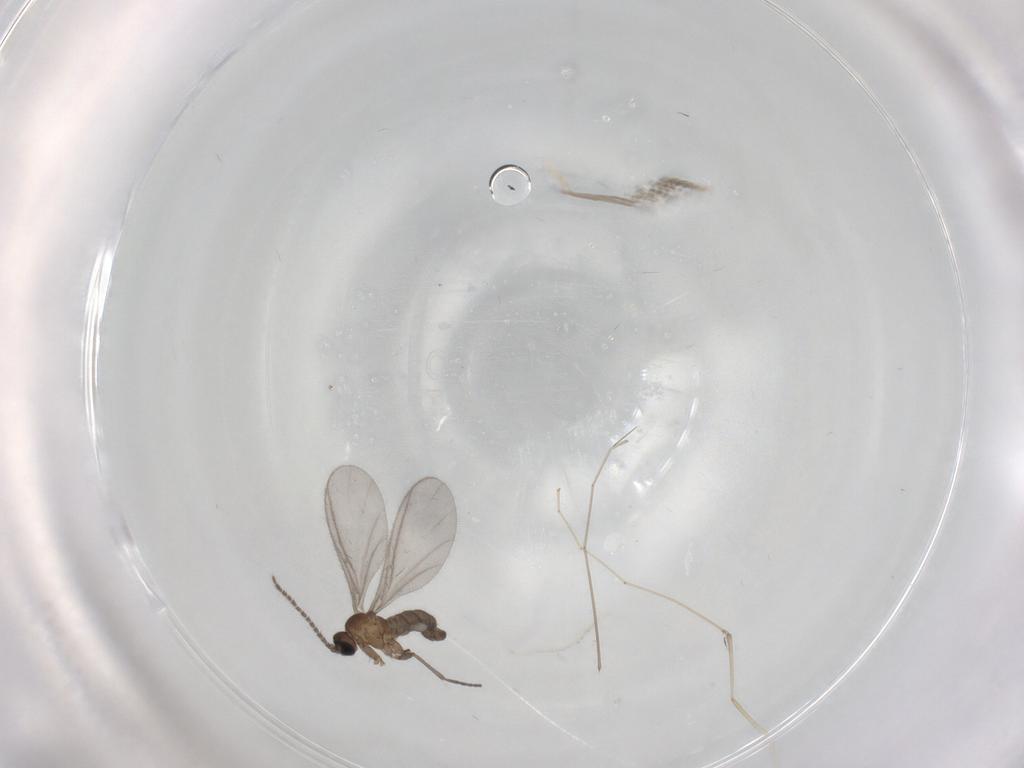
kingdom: Animalia
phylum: Arthropoda
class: Insecta
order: Diptera
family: Sciaridae
